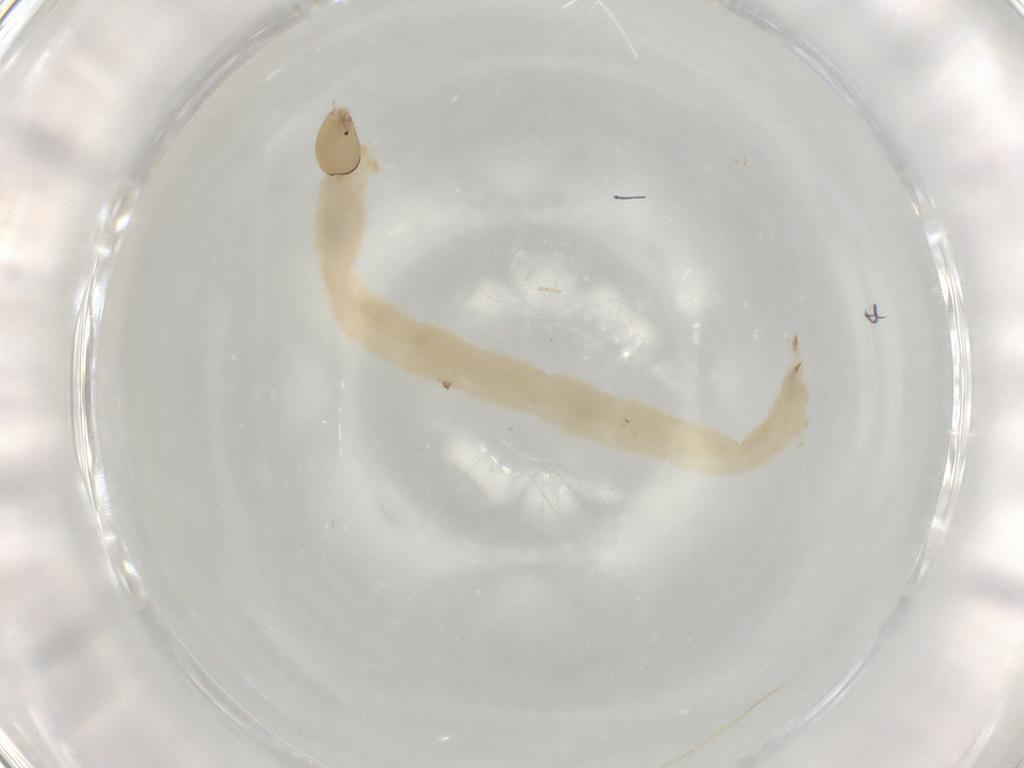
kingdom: Animalia
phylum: Arthropoda
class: Insecta
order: Diptera
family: Chironomidae
